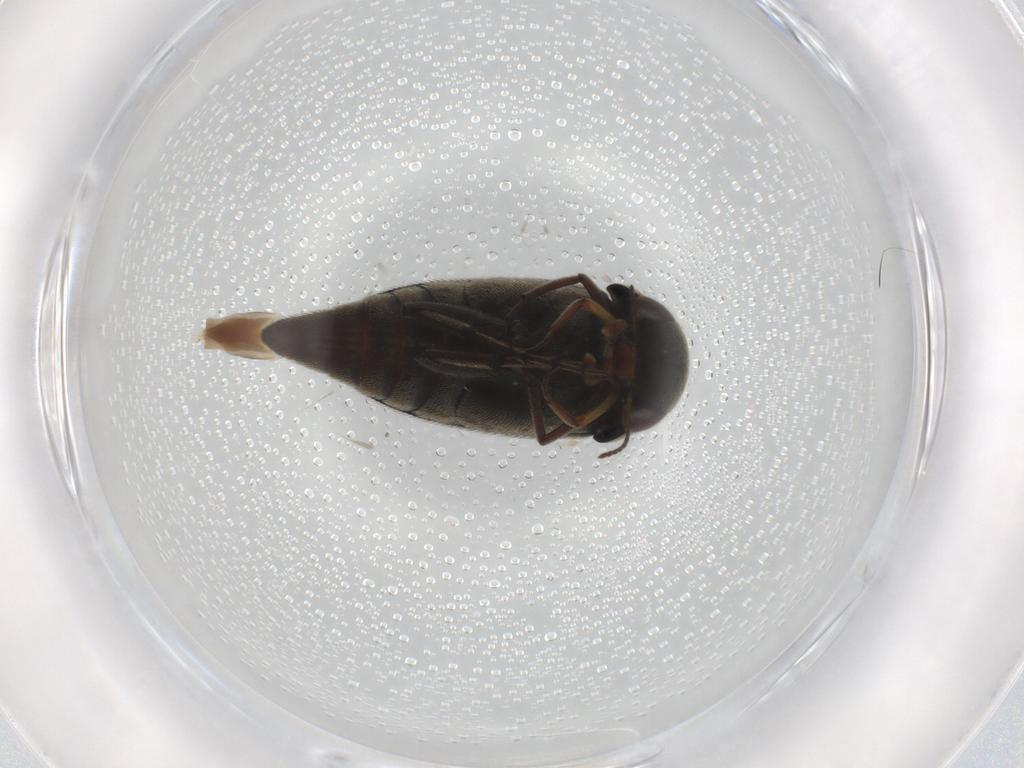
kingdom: Animalia
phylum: Arthropoda
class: Insecta
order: Coleoptera
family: Mordellidae
